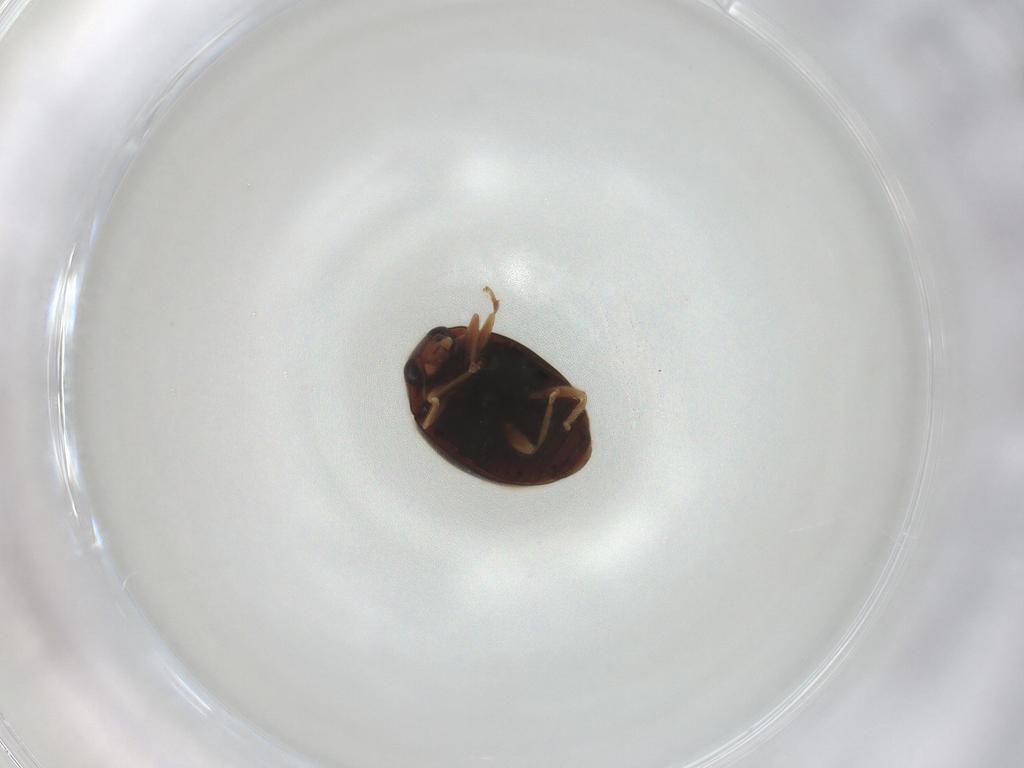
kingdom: Animalia
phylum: Arthropoda
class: Insecta
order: Coleoptera
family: Coccinellidae
